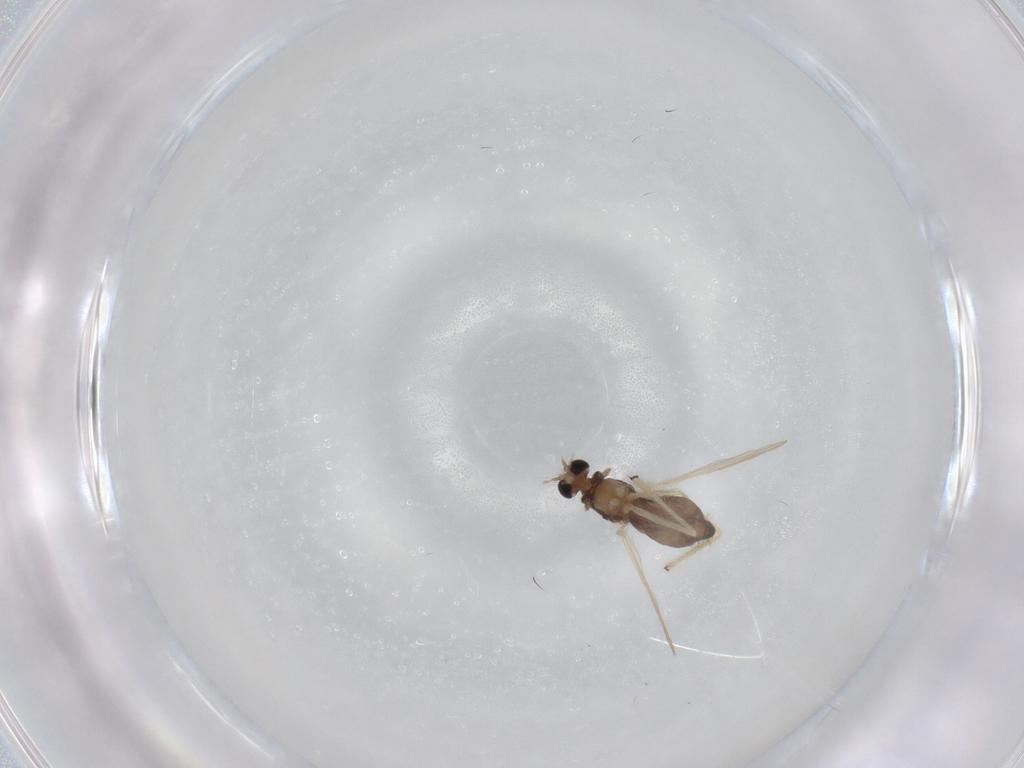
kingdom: Animalia
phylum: Arthropoda
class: Insecta
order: Diptera
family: Chironomidae
